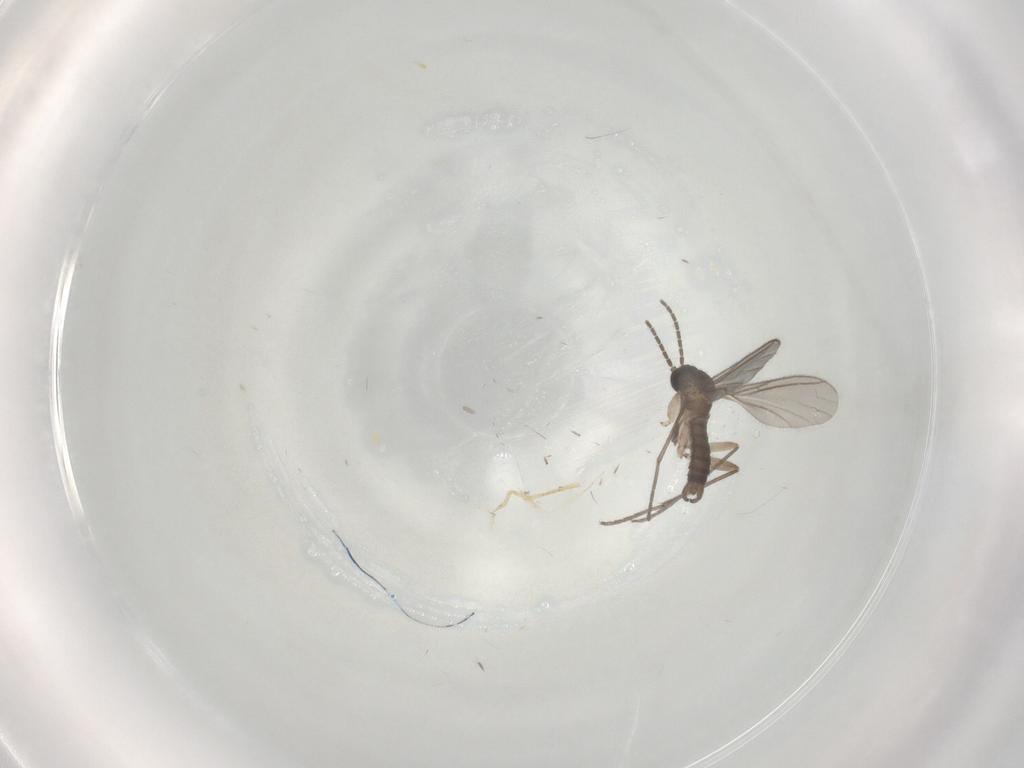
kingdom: Animalia
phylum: Arthropoda
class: Insecta
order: Diptera
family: Sciaridae
